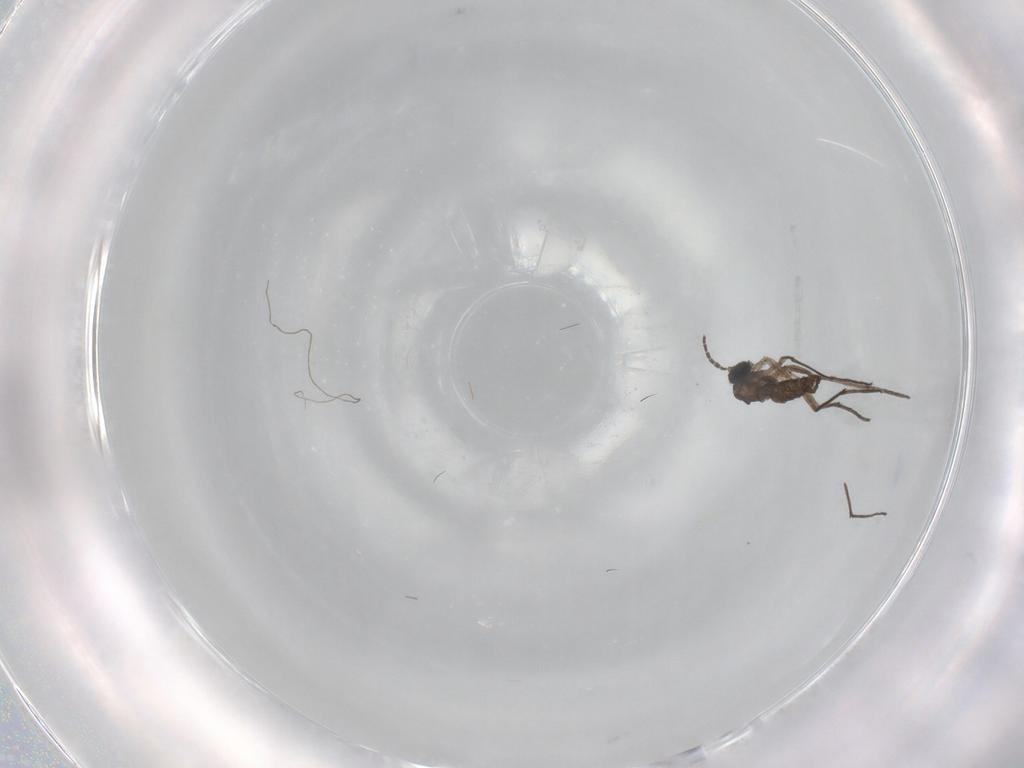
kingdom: Animalia
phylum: Arthropoda
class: Insecta
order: Diptera
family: Sciaridae
